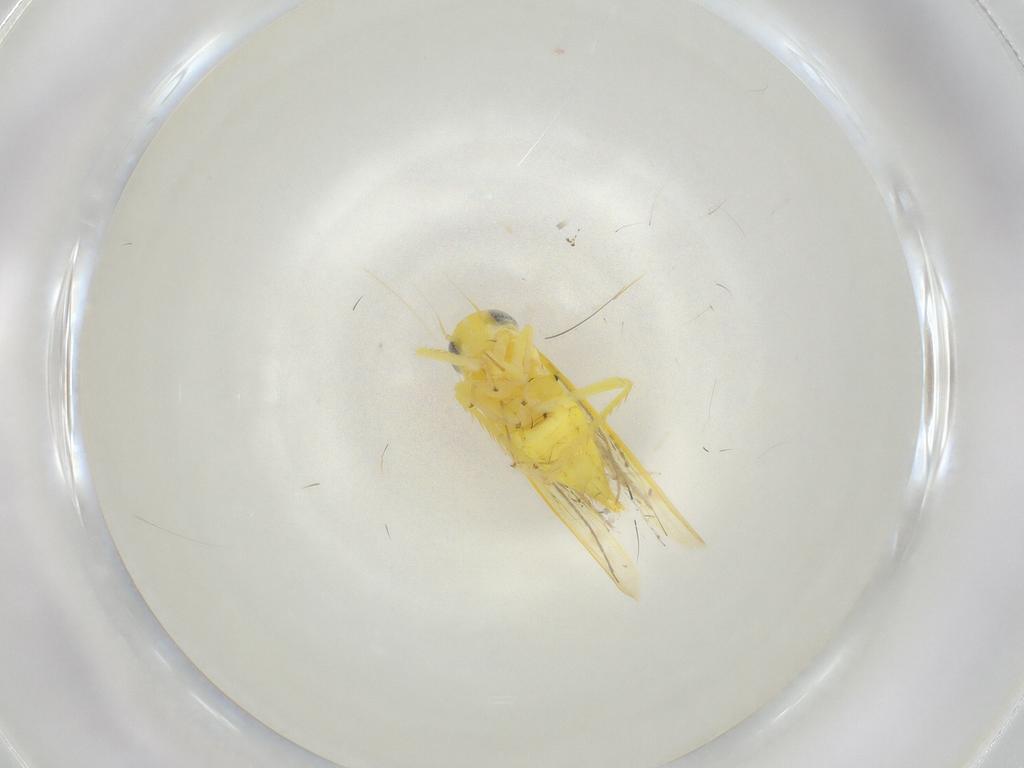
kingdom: Animalia
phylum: Arthropoda
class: Insecta
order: Hemiptera
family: Cicadellidae
